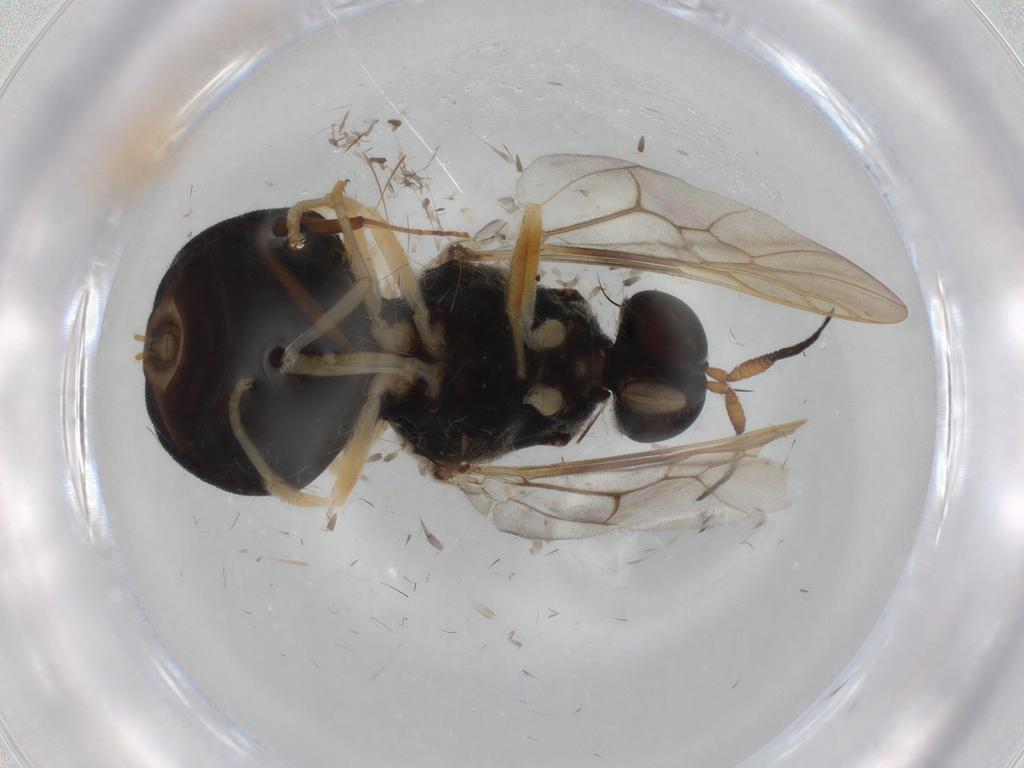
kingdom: Animalia
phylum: Arthropoda
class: Insecta
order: Diptera
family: Stratiomyidae
